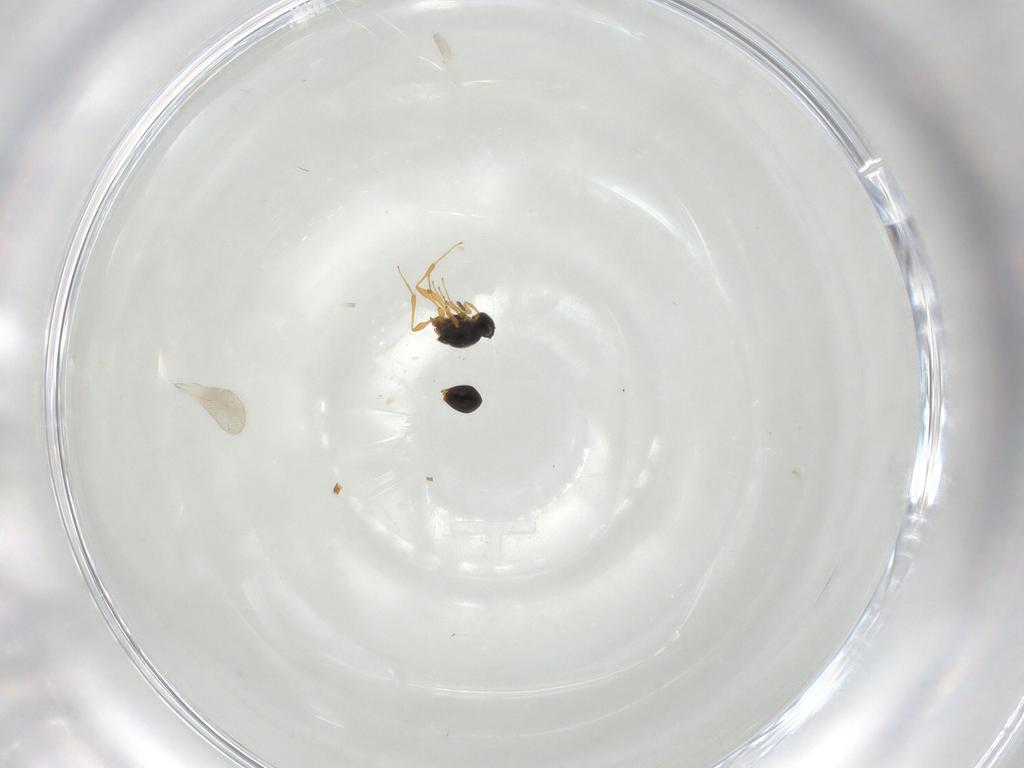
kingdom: Animalia
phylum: Arthropoda
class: Insecta
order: Hymenoptera
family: Platygastridae
